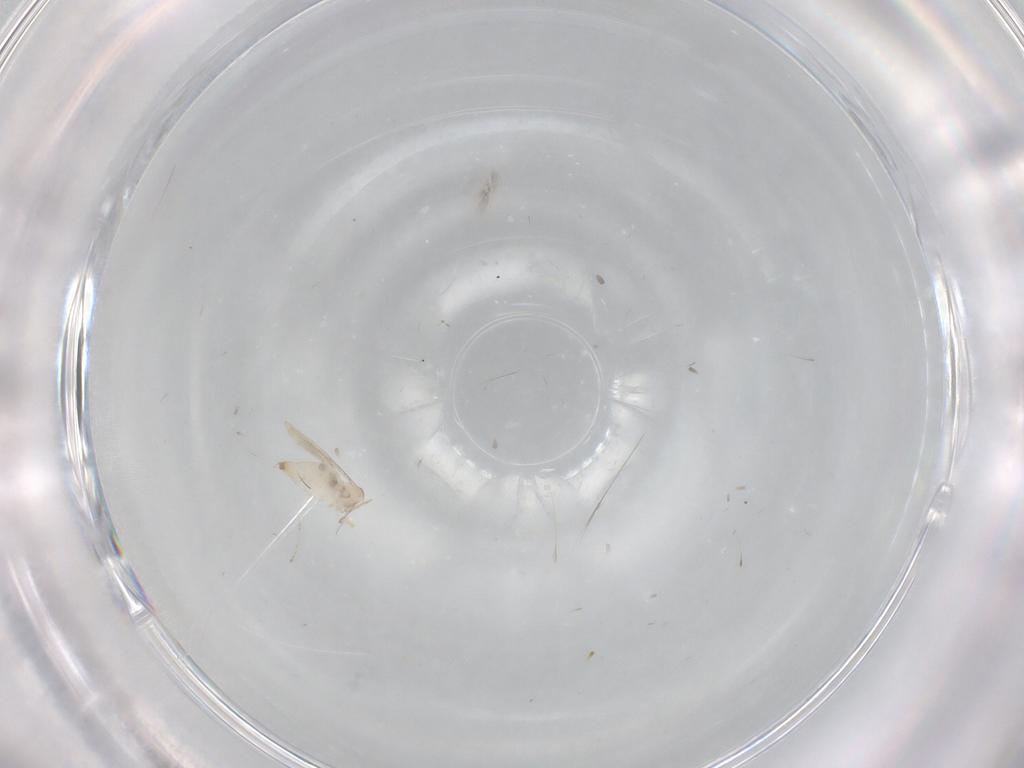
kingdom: Animalia
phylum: Arthropoda
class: Insecta
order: Diptera
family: Cecidomyiidae
